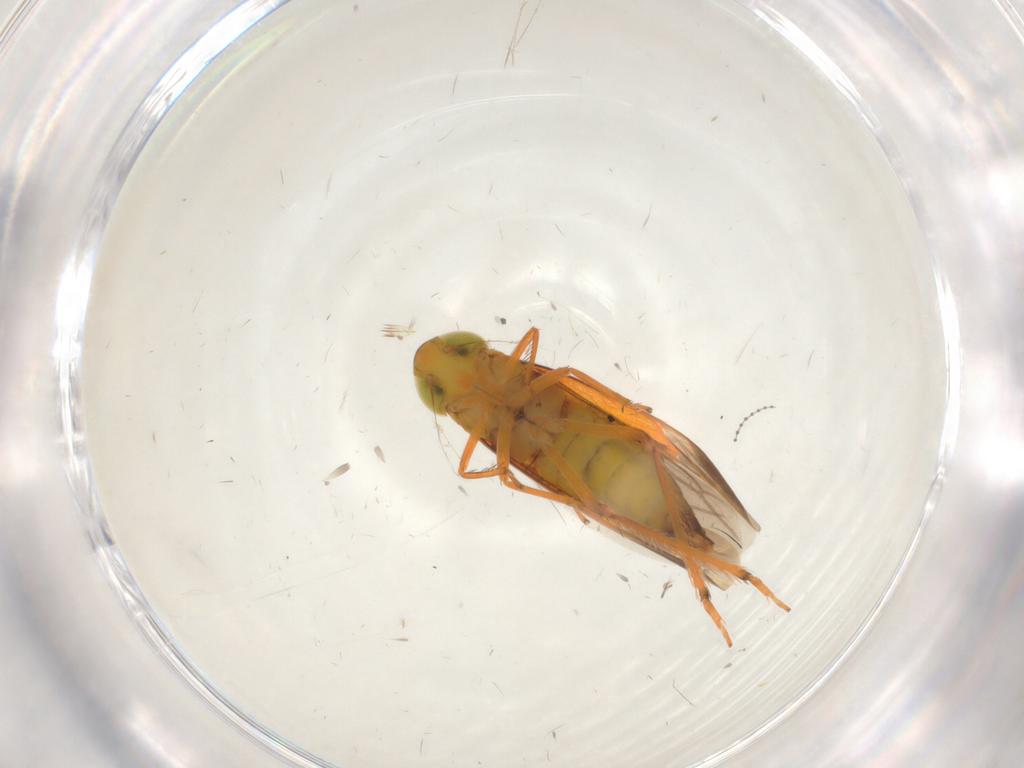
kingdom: Animalia
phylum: Arthropoda
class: Insecta
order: Hemiptera
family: Cicadellidae
